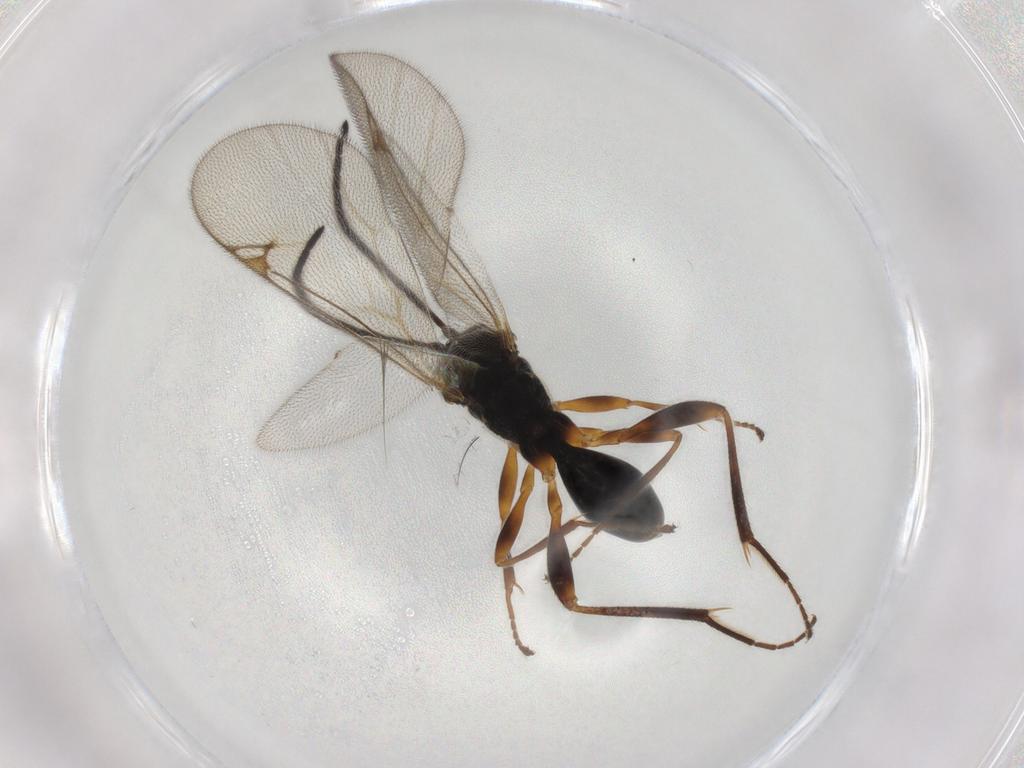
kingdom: Animalia
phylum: Arthropoda
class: Insecta
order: Hymenoptera
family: Proctotrupidae
